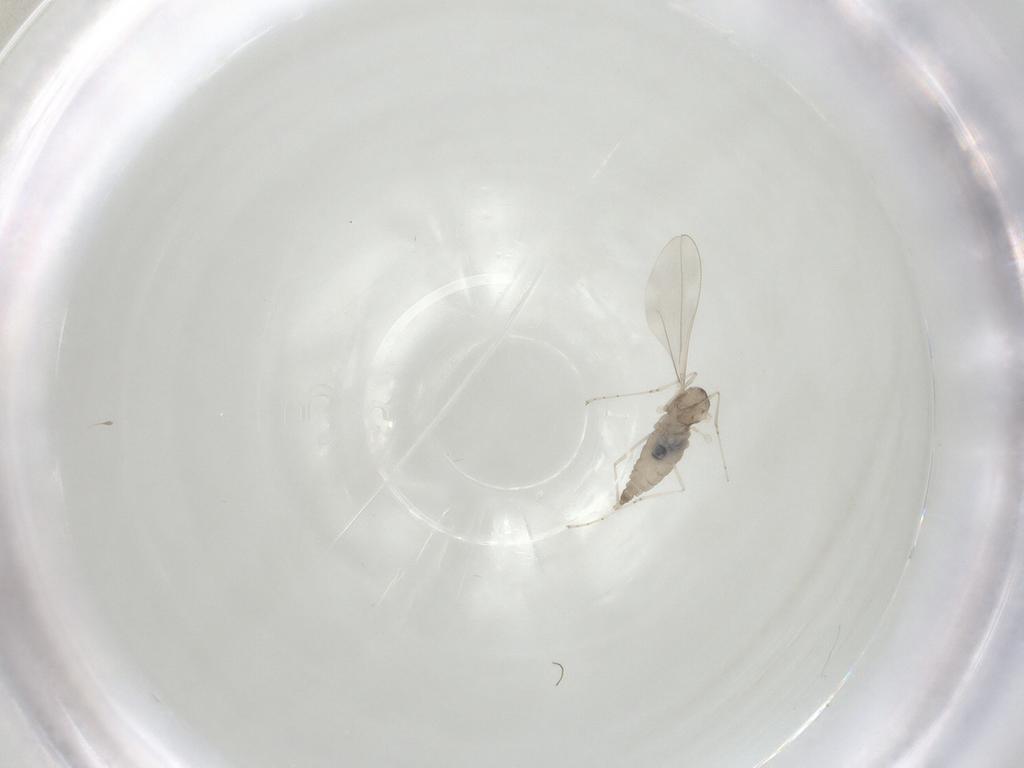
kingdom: Animalia
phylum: Arthropoda
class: Insecta
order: Diptera
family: Cecidomyiidae
